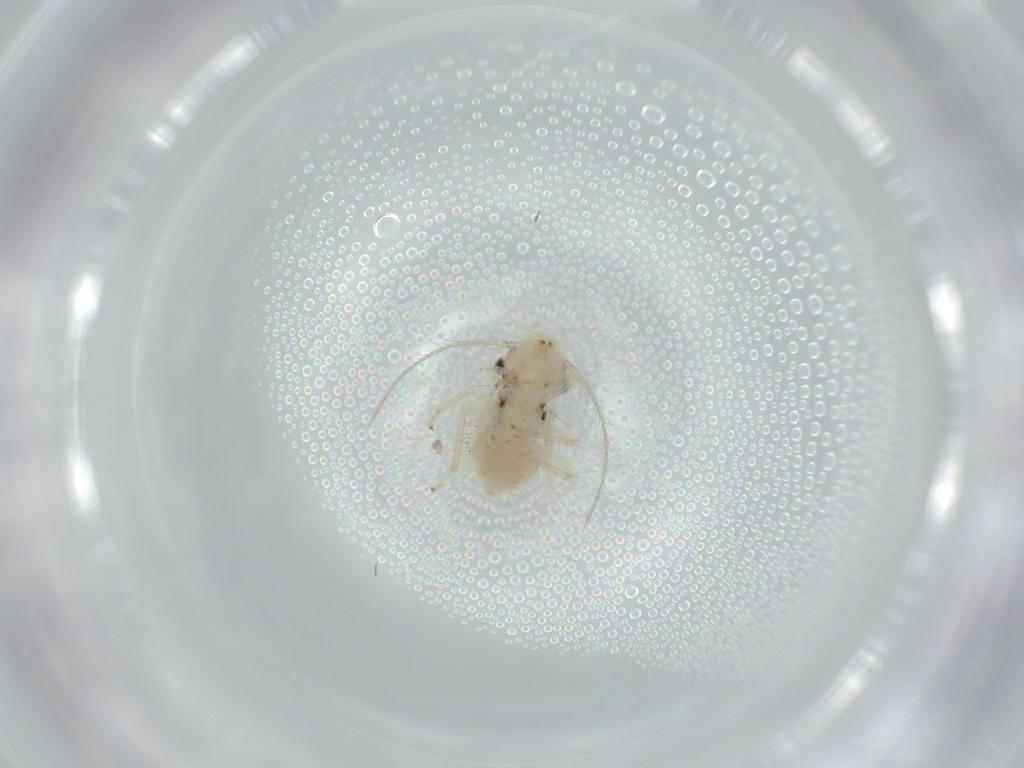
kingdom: Animalia
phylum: Arthropoda
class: Insecta
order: Psocodea
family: Pseudocaeciliidae
